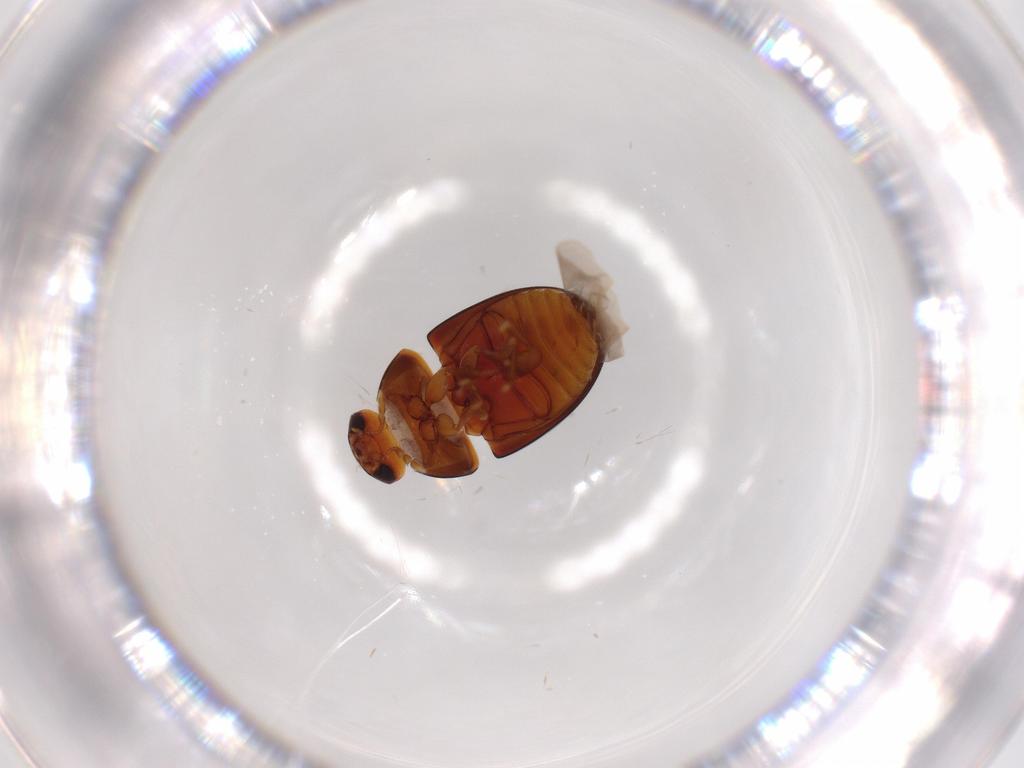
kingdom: Animalia
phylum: Arthropoda
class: Insecta
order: Coleoptera
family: Phalacridae
